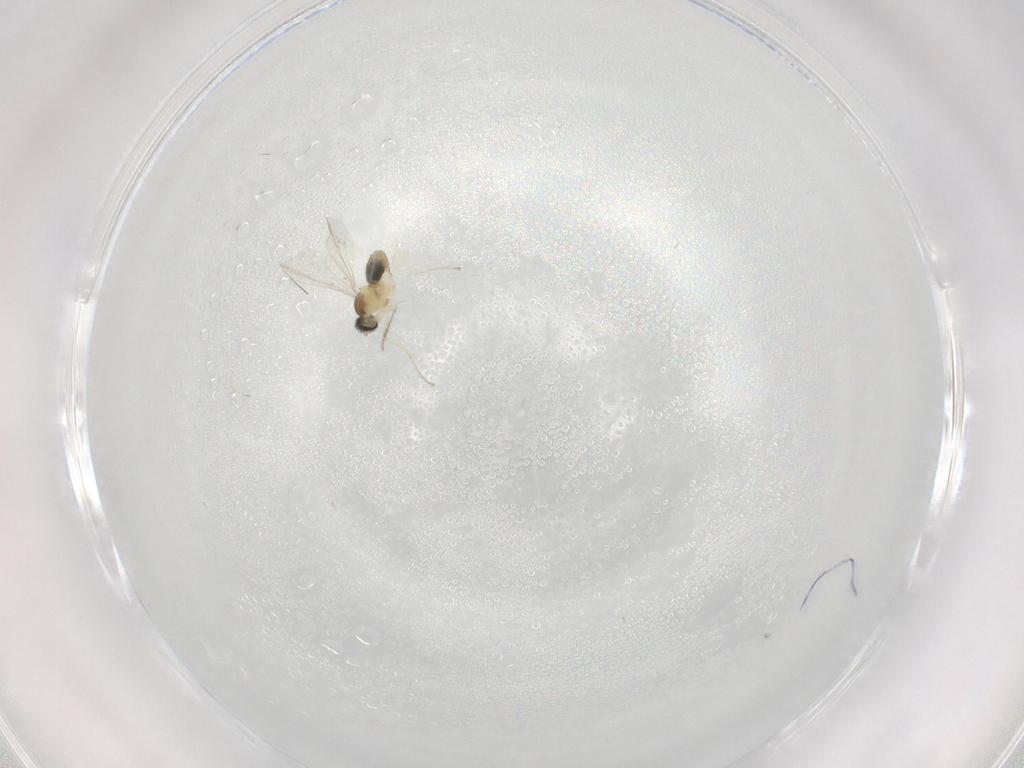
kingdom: Animalia
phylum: Arthropoda
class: Insecta
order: Diptera
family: Cecidomyiidae
